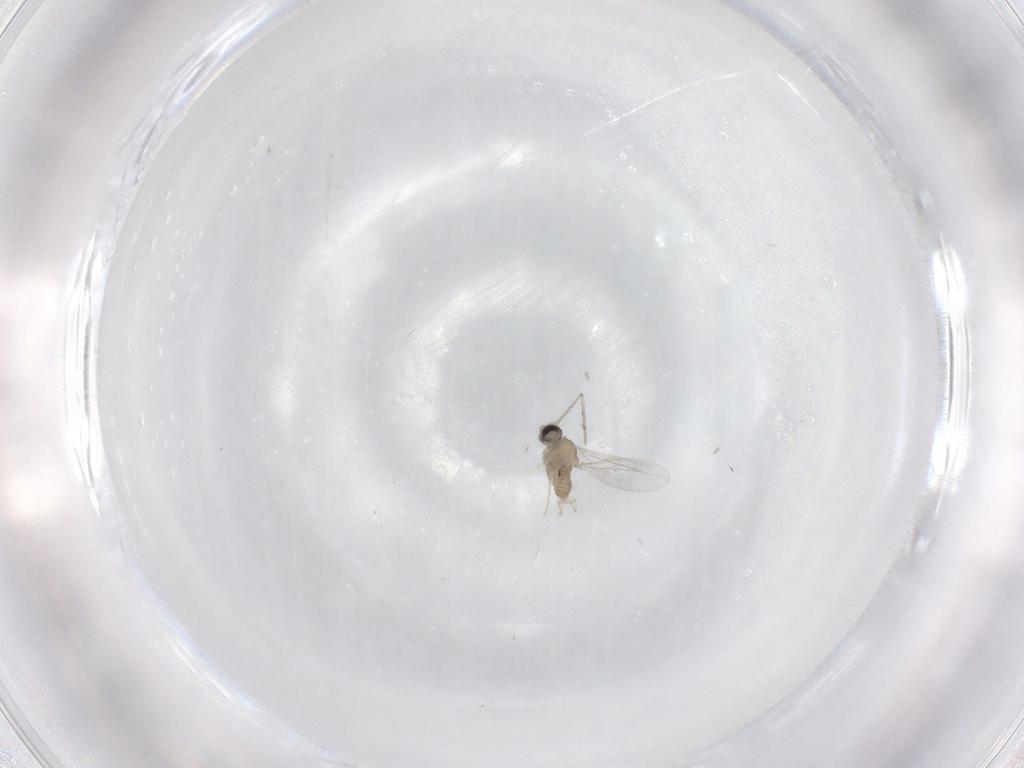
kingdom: Animalia
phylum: Arthropoda
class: Insecta
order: Diptera
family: Cecidomyiidae
